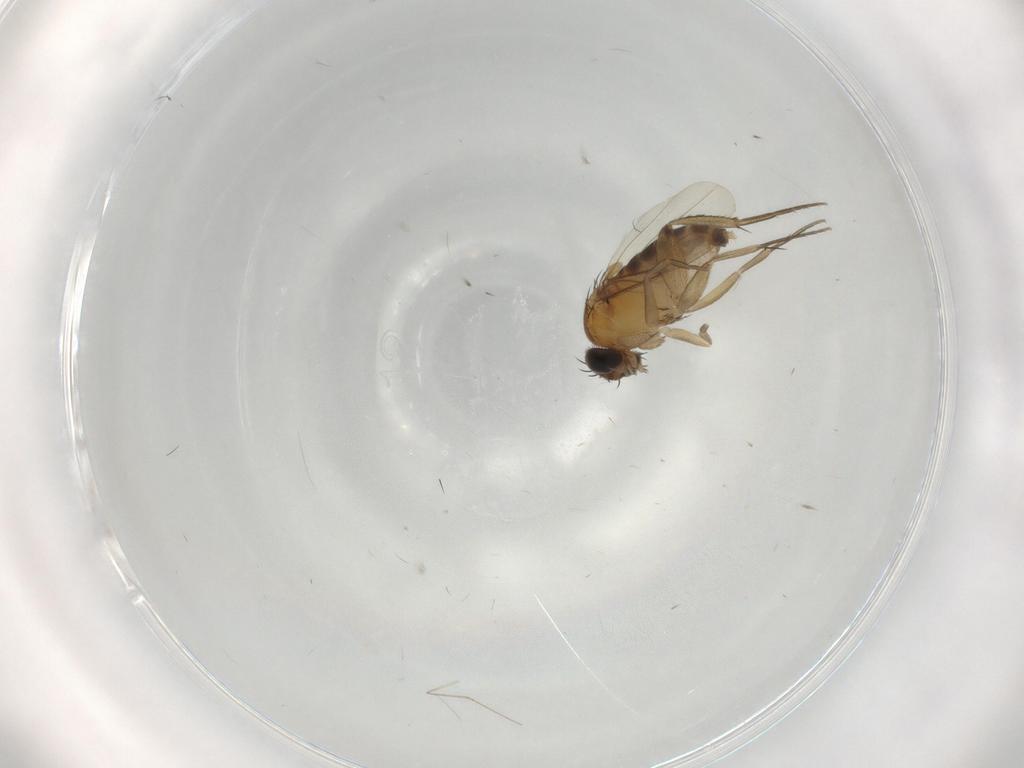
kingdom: Animalia
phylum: Arthropoda
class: Insecta
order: Diptera
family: Phoridae
